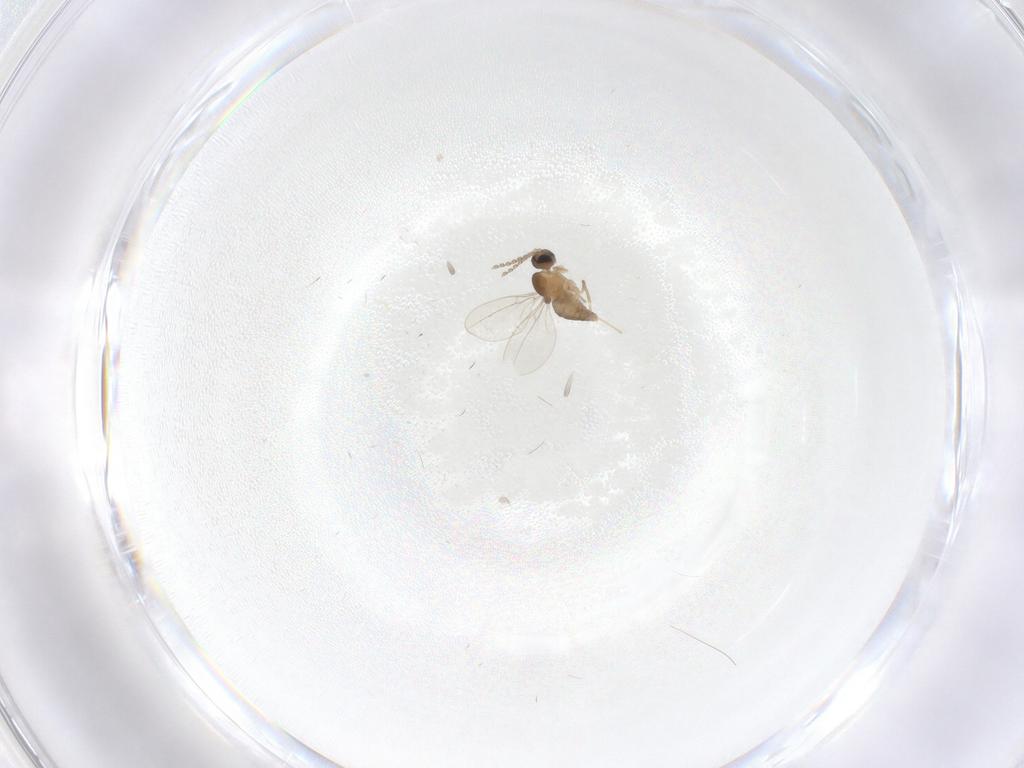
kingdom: Animalia
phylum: Arthropoda
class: Insecta
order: Diptera
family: Cecidomyiidae
